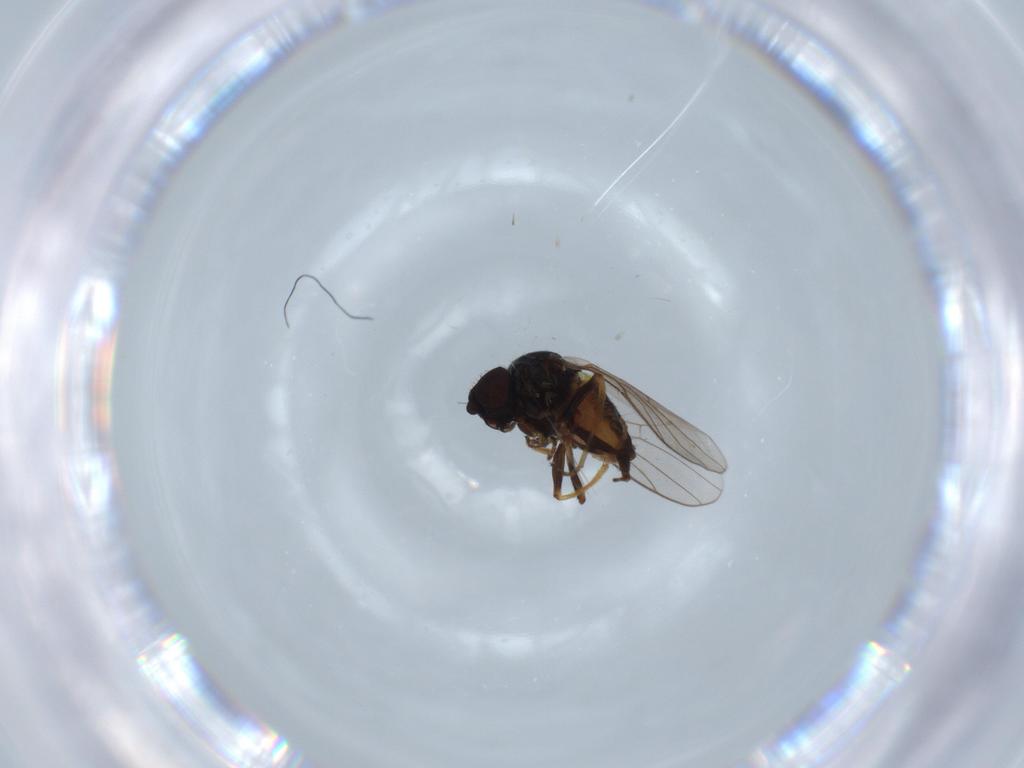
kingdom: Animalia
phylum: Arthropoda
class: Insecta
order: Diptera
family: Chloropidae
